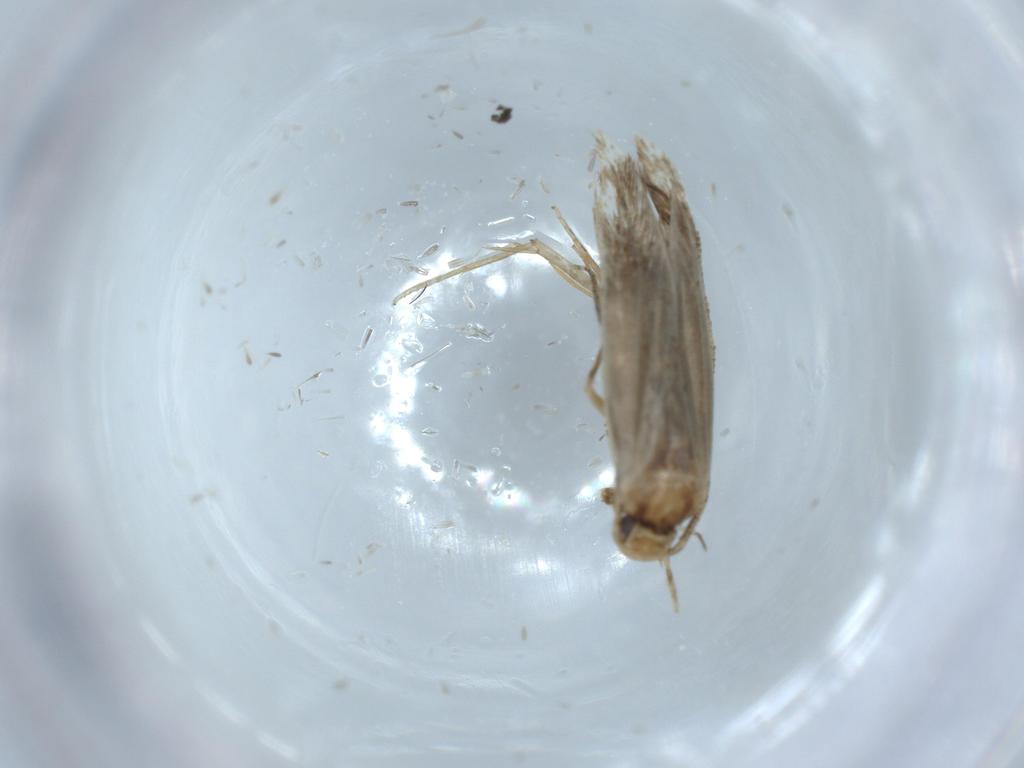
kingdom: Animalia
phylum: Arthropoda
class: Insecta
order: Lepidoptera
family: Tineidae
